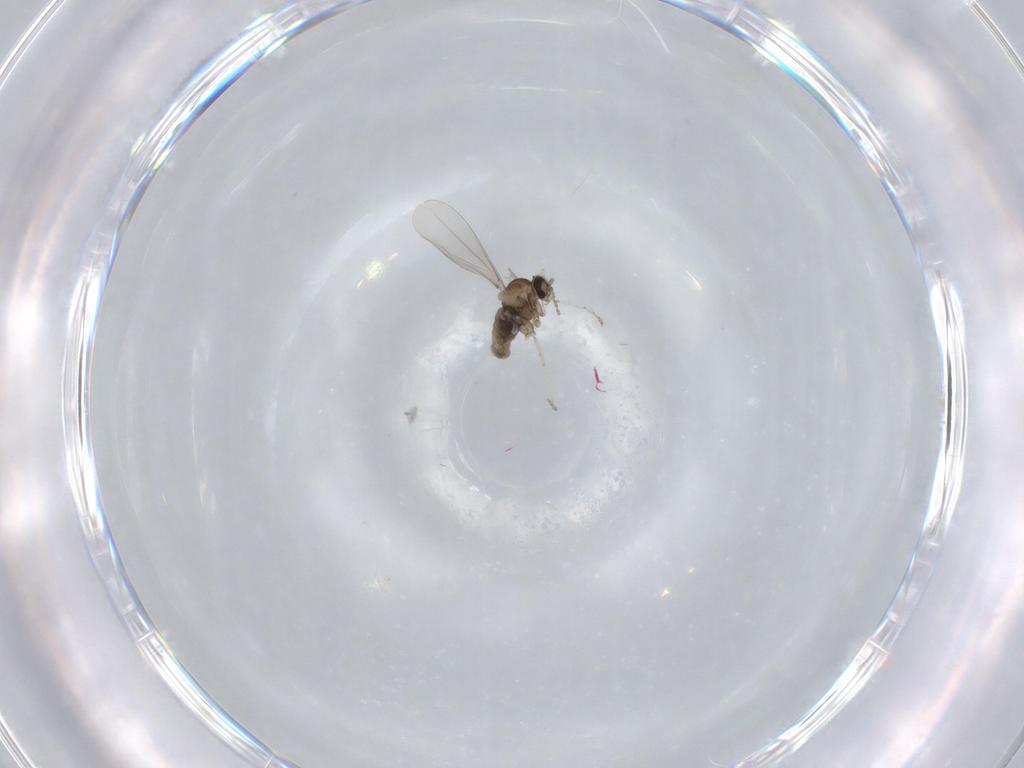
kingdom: Animalia
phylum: Arthropoda
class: Insecta
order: Diptera
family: Cecidomyiidae
